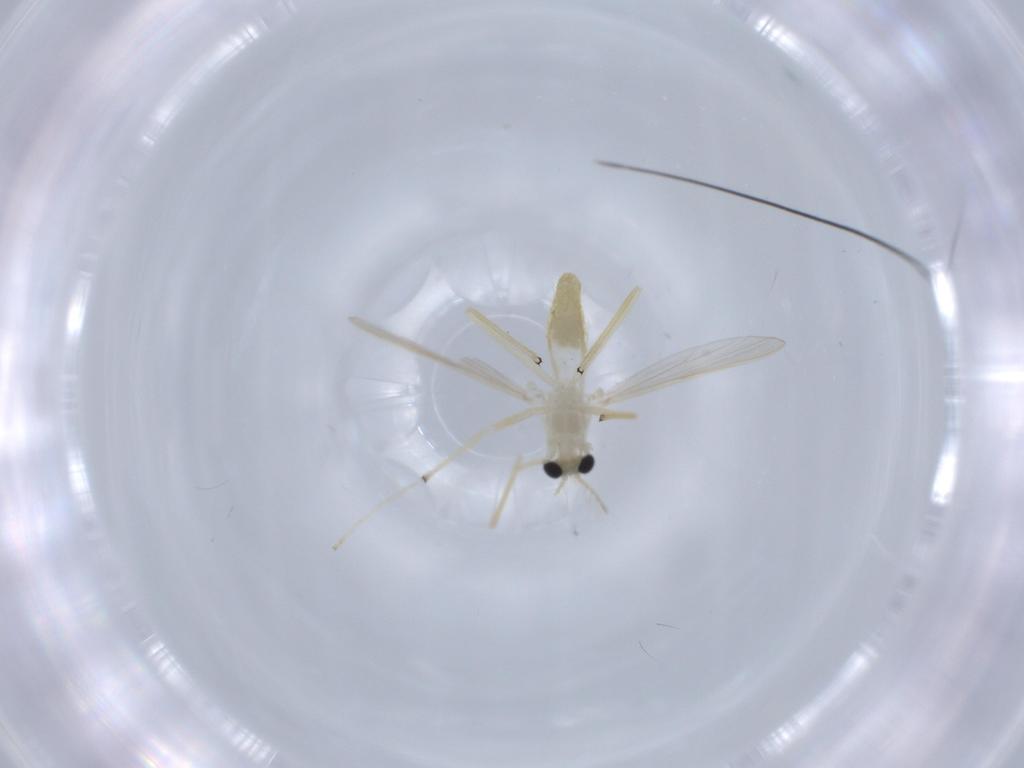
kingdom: Animalia
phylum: Arthropoda
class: Insecta
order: Diptera
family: Chironomidae
